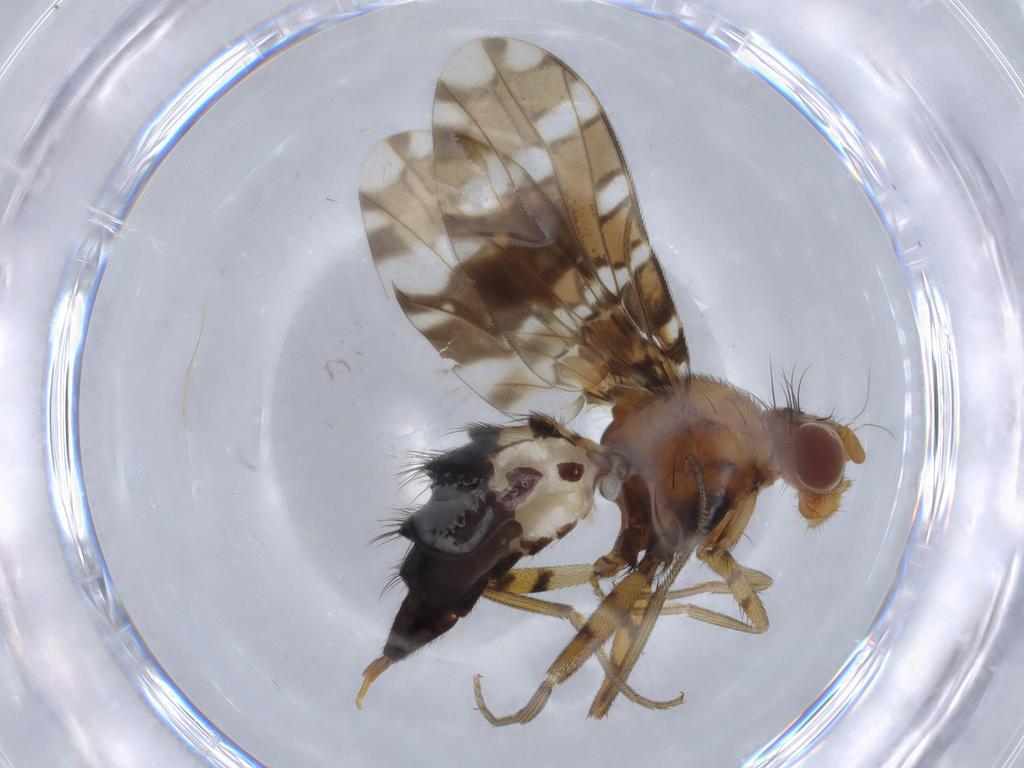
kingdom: Animalia
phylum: Arthropoda
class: Insecta
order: Diptera
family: Ulidiidae
